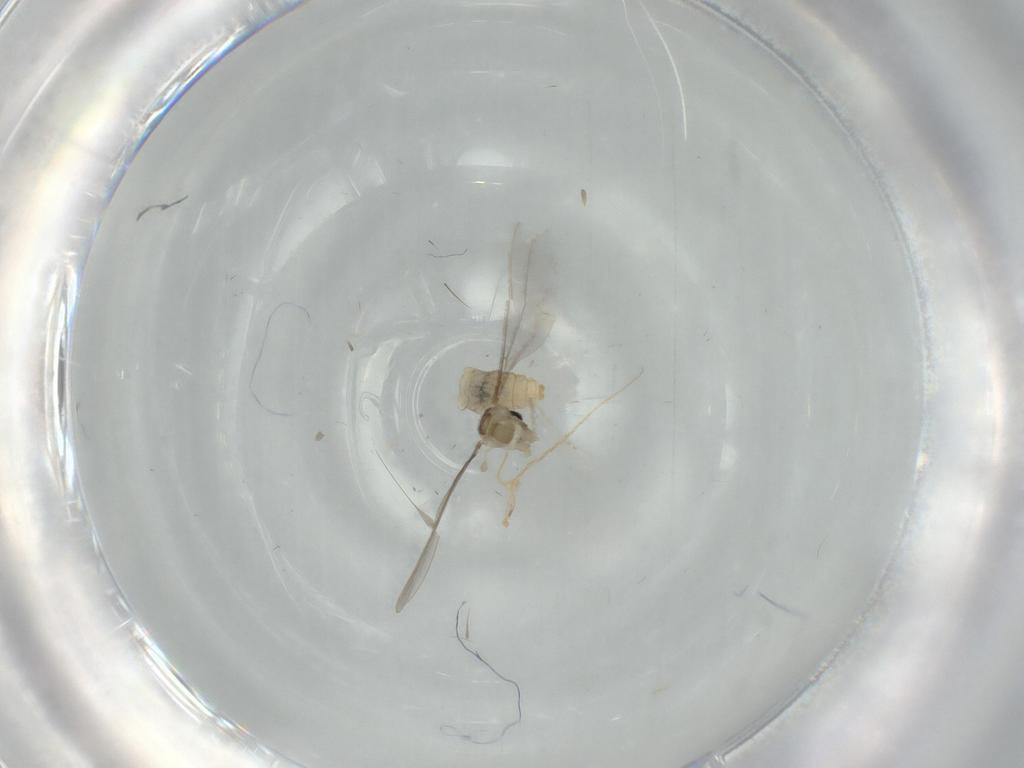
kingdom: Animalia
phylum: Arthropoda
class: Insecta
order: Diptera
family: Cecidomyiidae
